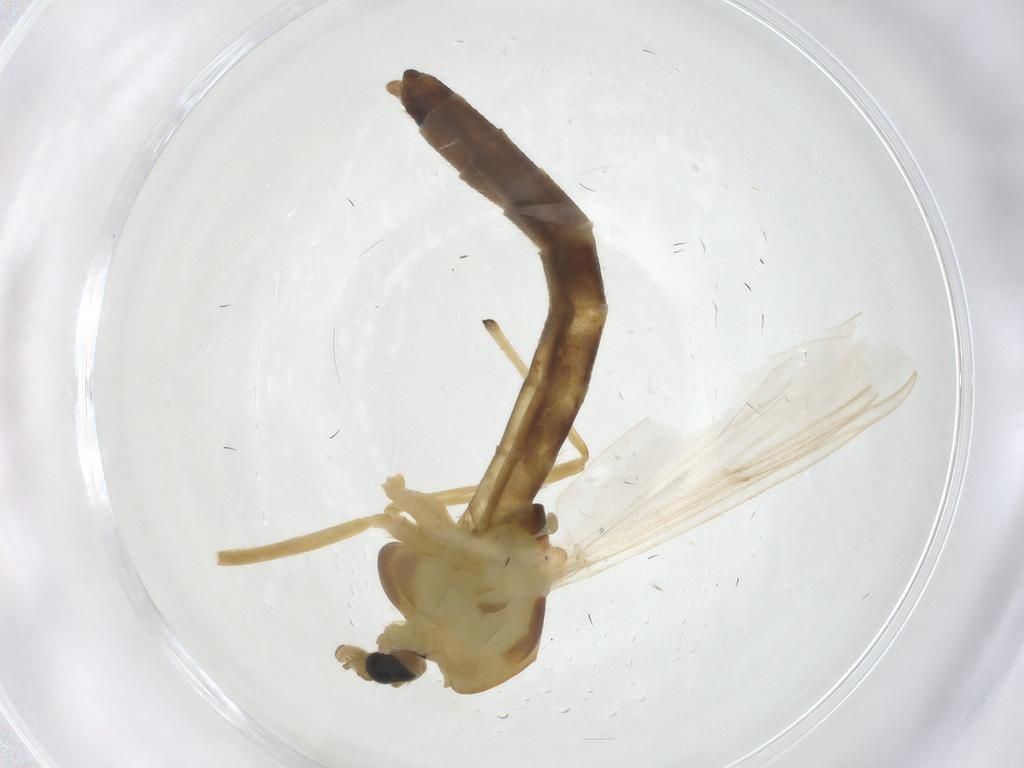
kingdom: Animalia
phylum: Arthropoda
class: Insecta
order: Diptera
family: Chironomidae
